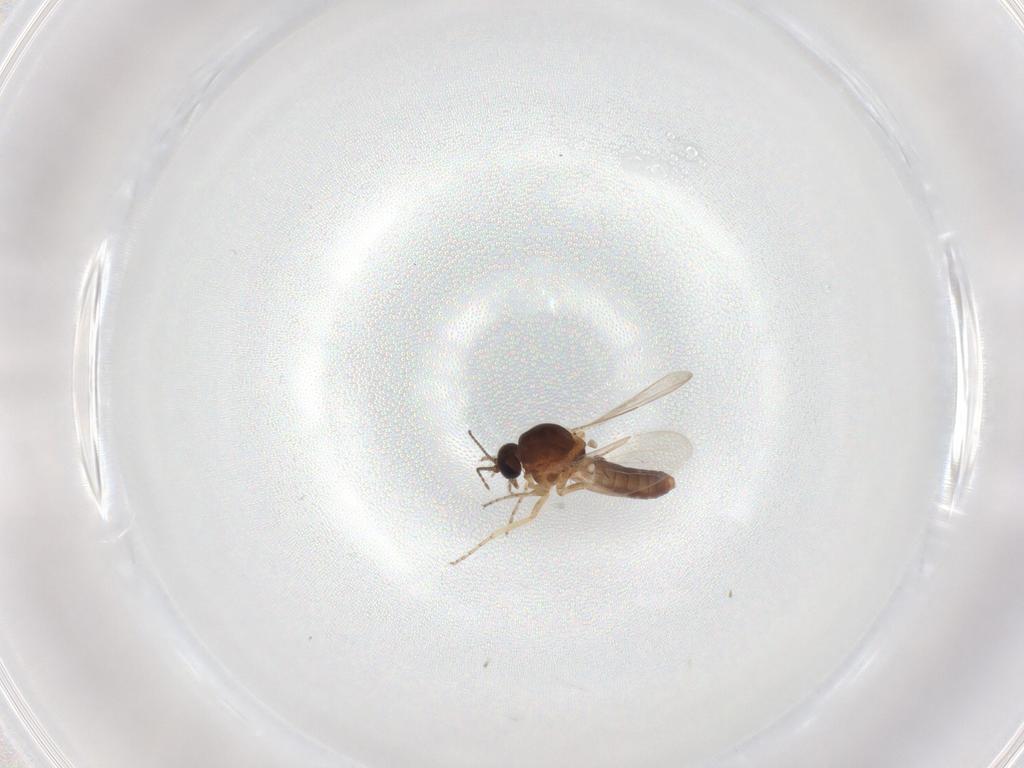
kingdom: Animalia
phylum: Arthropoda
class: Insecta
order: Diptera
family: Ceratopogonidae
